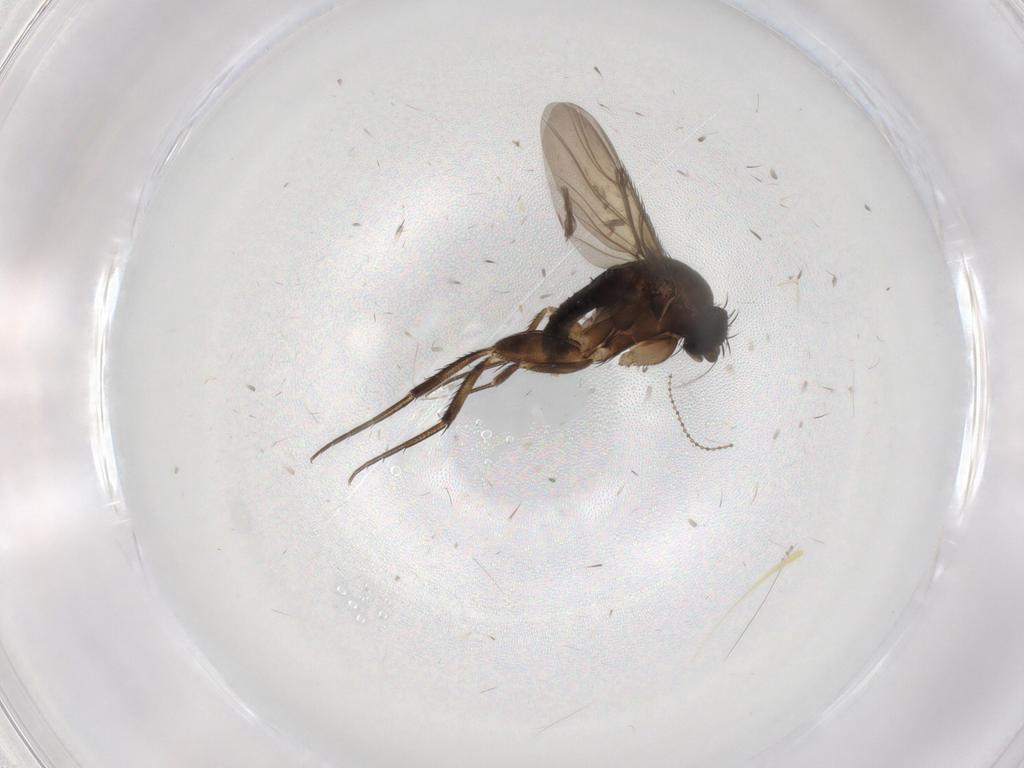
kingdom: Animalia
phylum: Arthropoda
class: Insecta
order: Diptera
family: Phoridae
